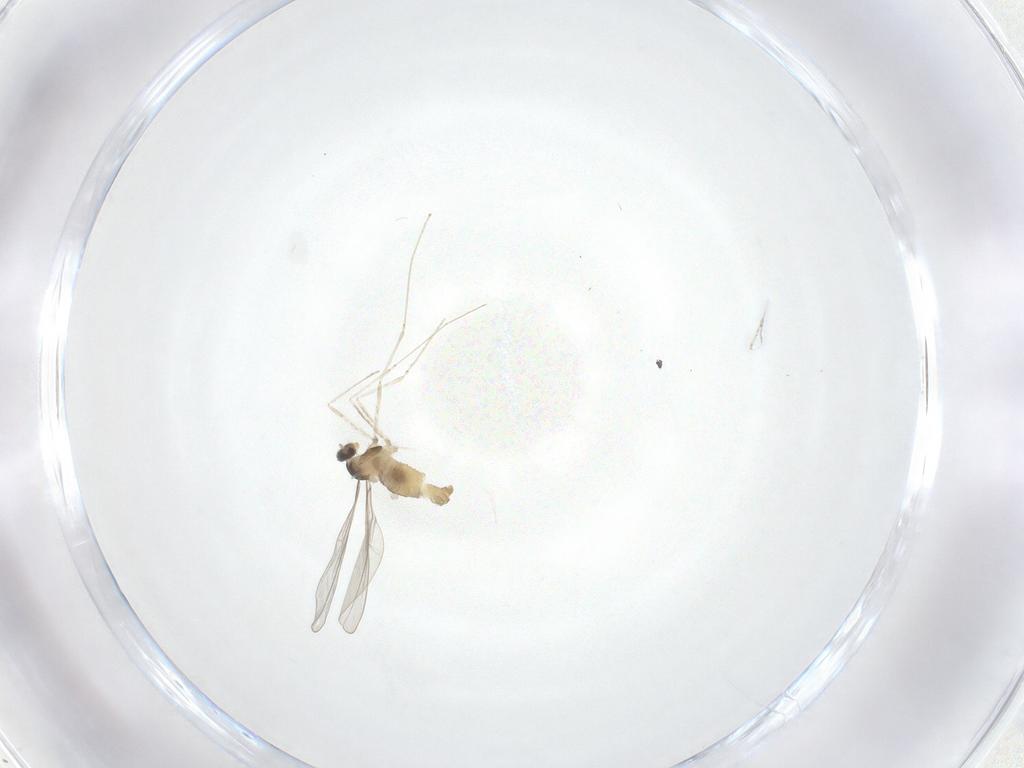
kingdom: Animalia
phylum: Arthropoda
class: Insecta
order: Diptera
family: Cecidomyiidae
